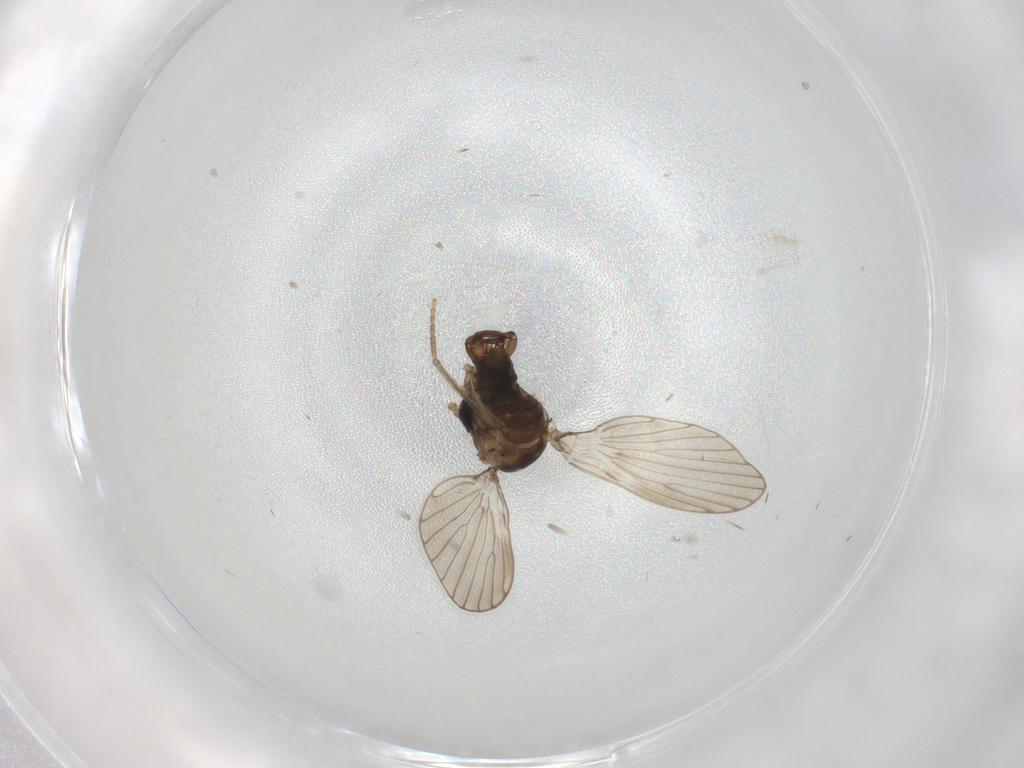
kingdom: Animalia
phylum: Arthropoda
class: Insecta
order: Diptera
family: Psychodidae
